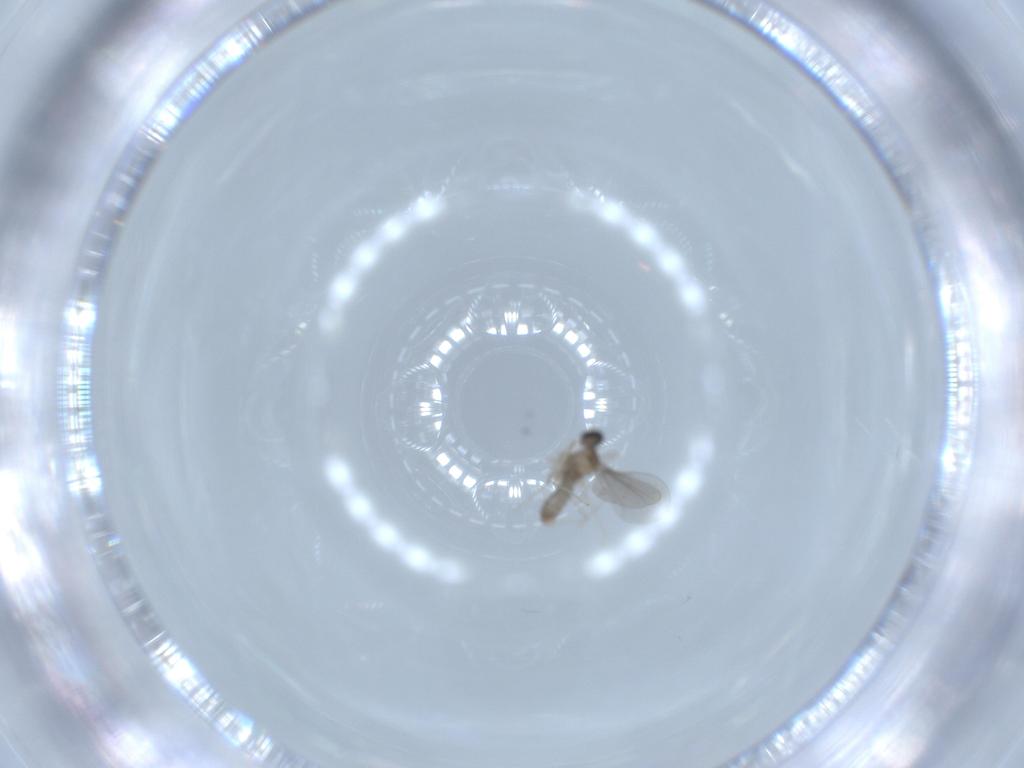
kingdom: Animalia
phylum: Arthropoda
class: Insecta
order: Diptera
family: Cecidomyiidae
